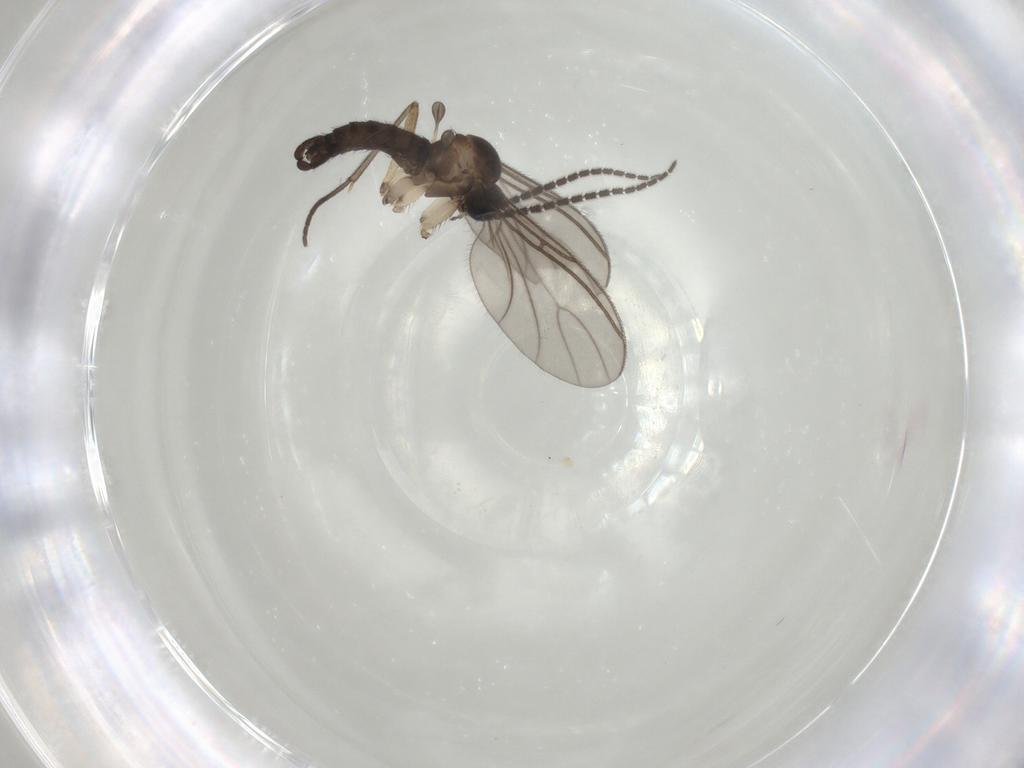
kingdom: Animalia
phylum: Arthropoda
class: Insecta
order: Diptera
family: Sciaridae
